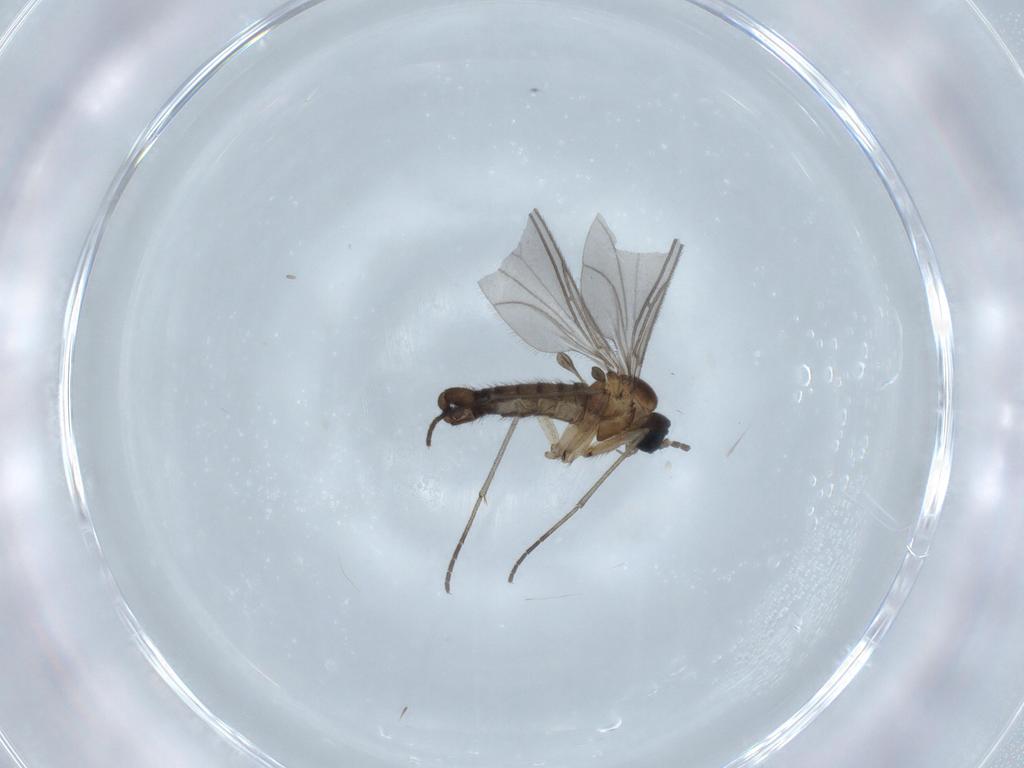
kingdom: Animalia
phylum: Arthropoda
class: Insecta
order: Diptera
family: Sciaridae
